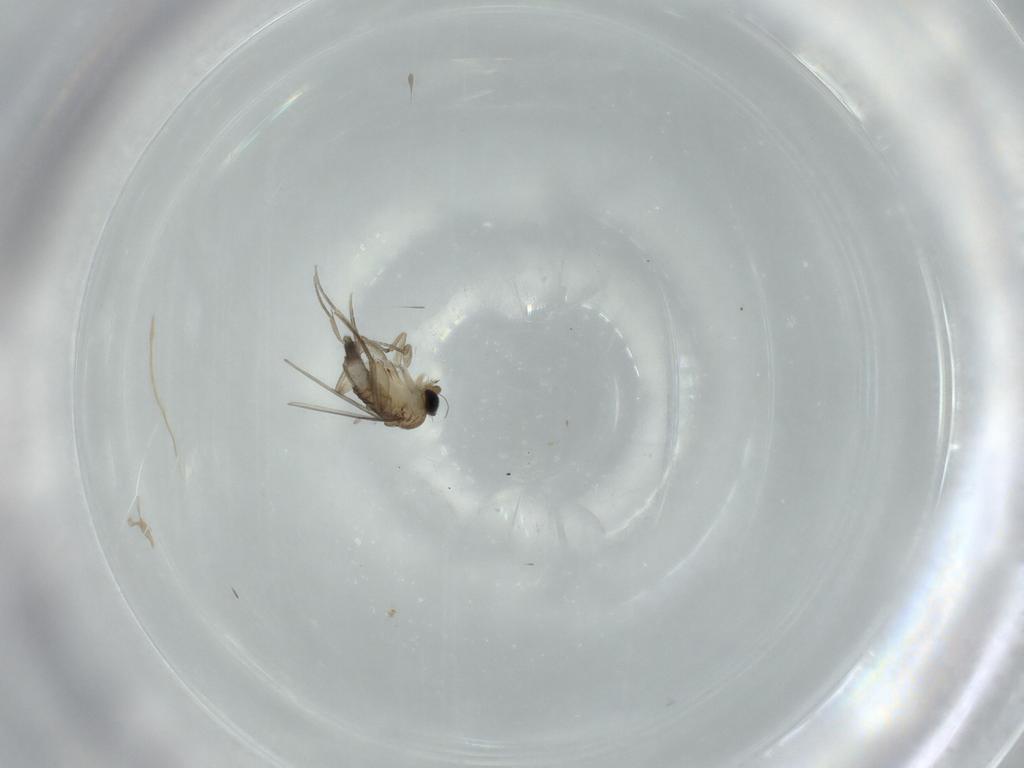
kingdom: Animalia
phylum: Arthropoda
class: Insecta
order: Diptera
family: Phoridae
